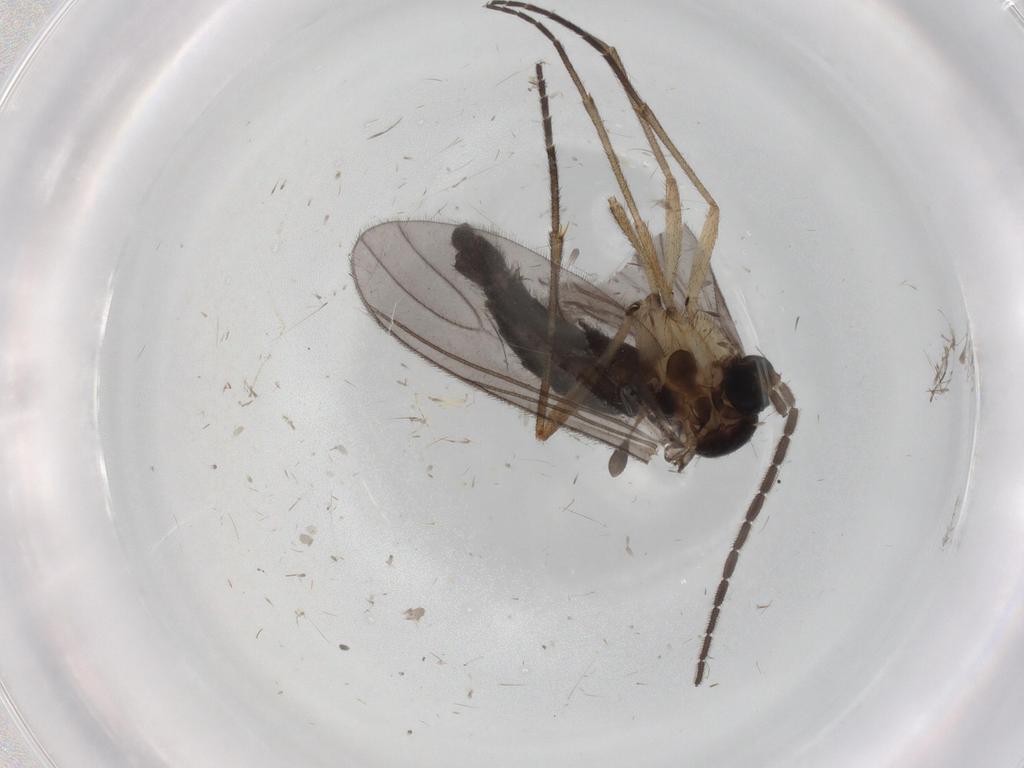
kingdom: Animalia
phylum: Arthropoda
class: Insecta
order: Diptera
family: Sciaridae
